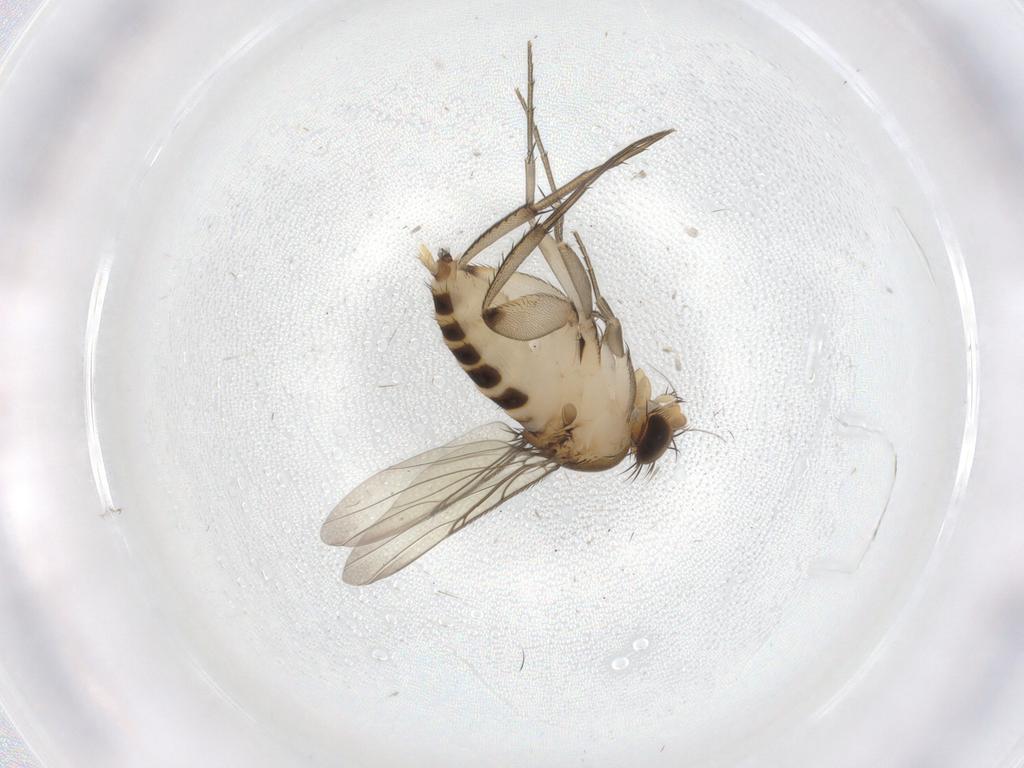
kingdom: Animalia
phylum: Arthropoda
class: Insecta
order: Diptera
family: Phoridae
